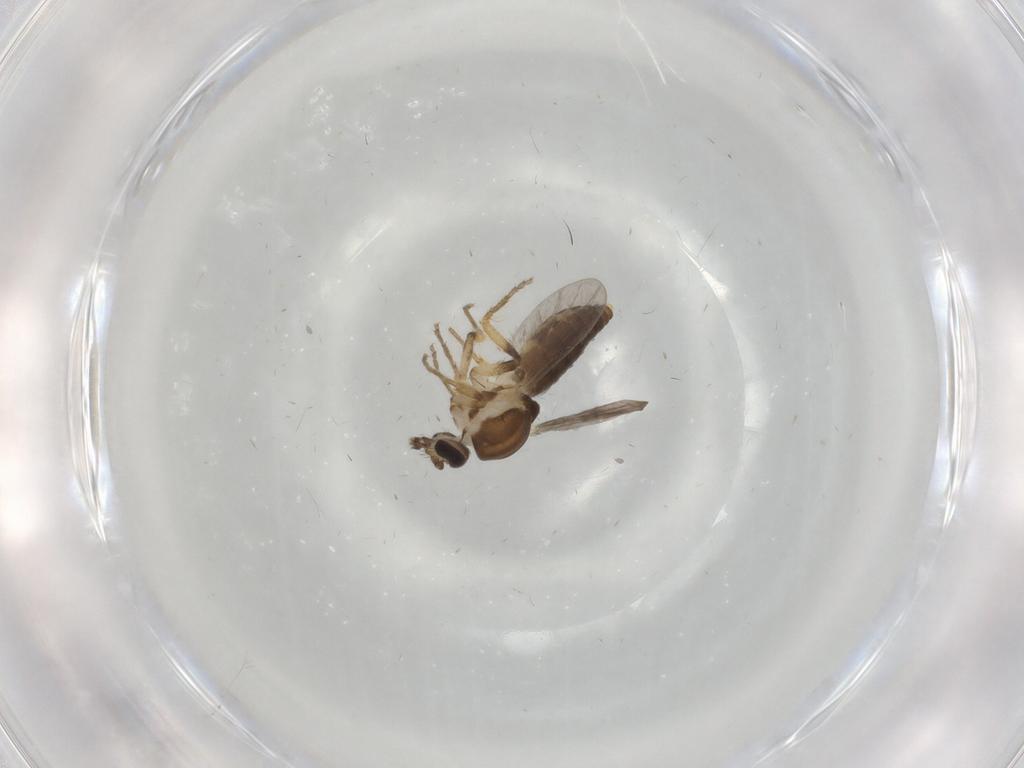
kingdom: Animalia
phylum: Arthropoda
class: Insecta
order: Diptera
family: Ceratopogonidae
